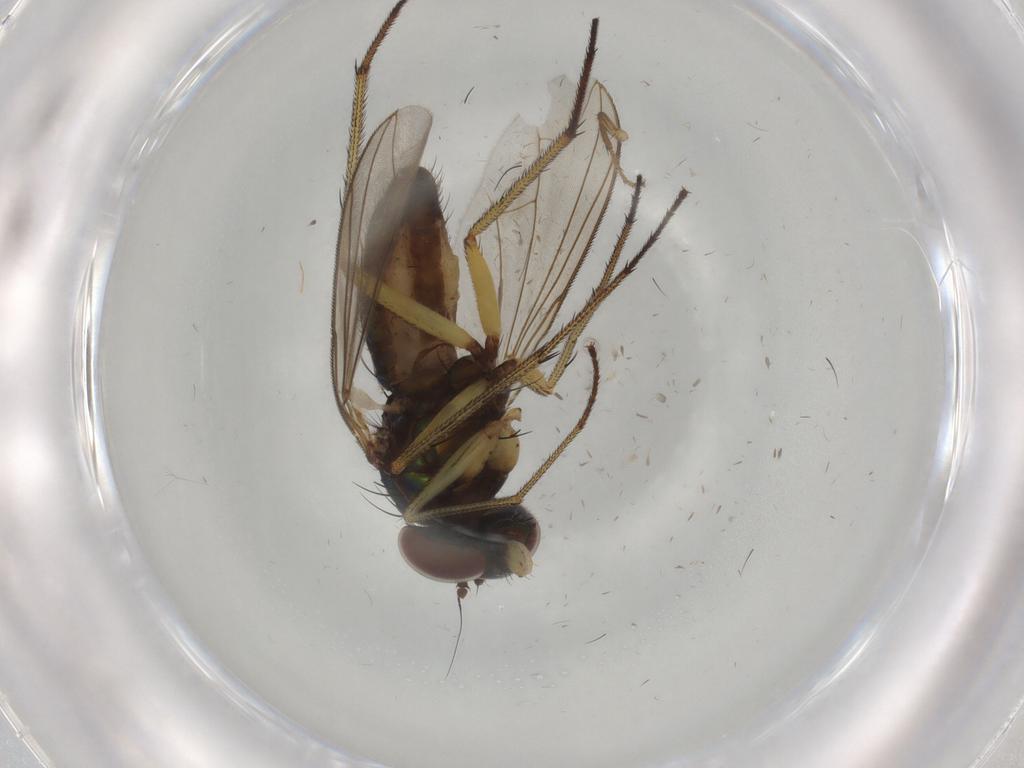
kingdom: Animalia
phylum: Arthropoda
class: Insecta
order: Diptera
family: Dolichopodidae
